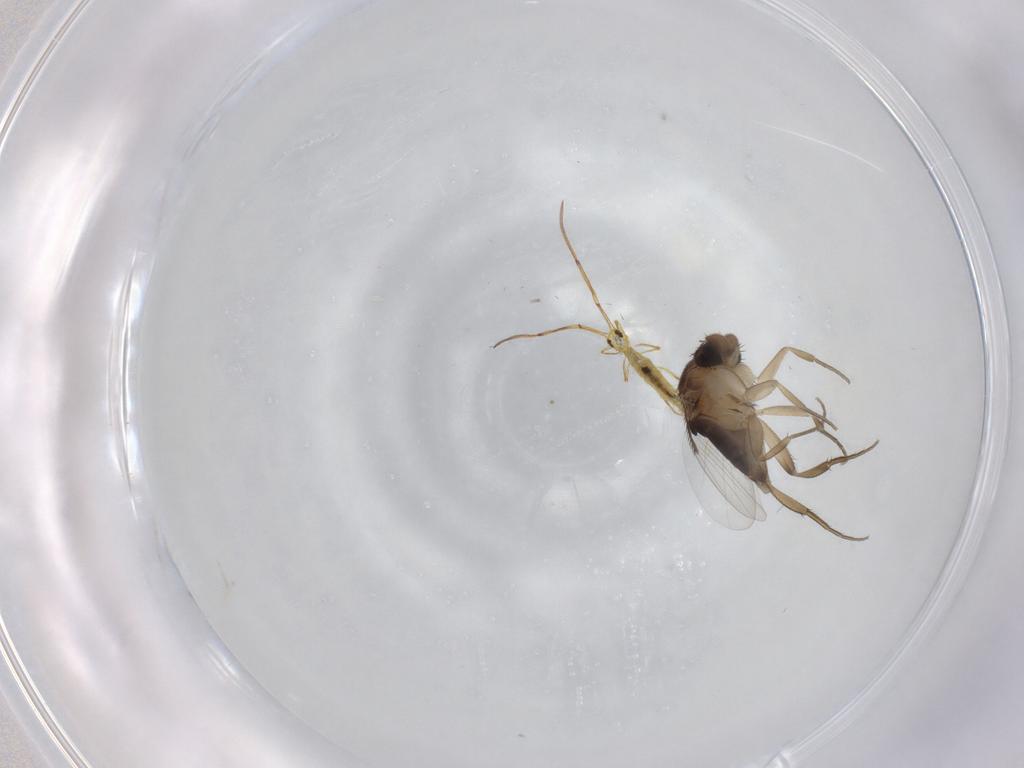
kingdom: Animalia
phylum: Arthropoda
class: Insecta
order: Diptera
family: Phoridae
